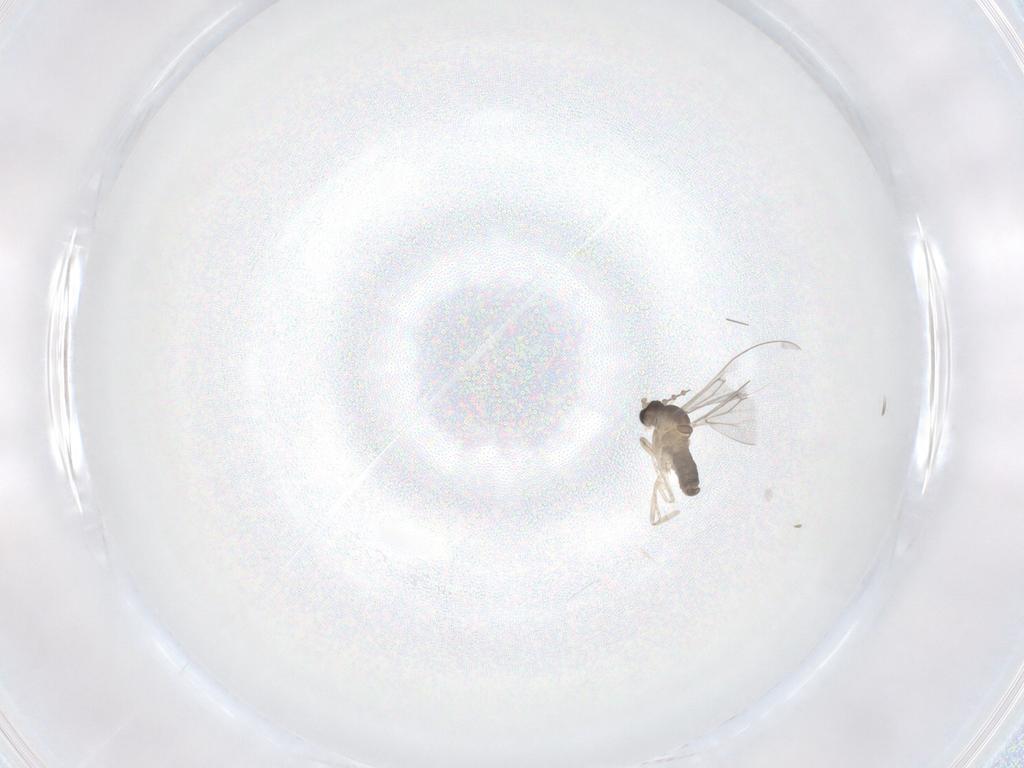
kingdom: Animalia
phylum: Arthropoda
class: Insecta
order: Diptera
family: Cecidomyiidae
